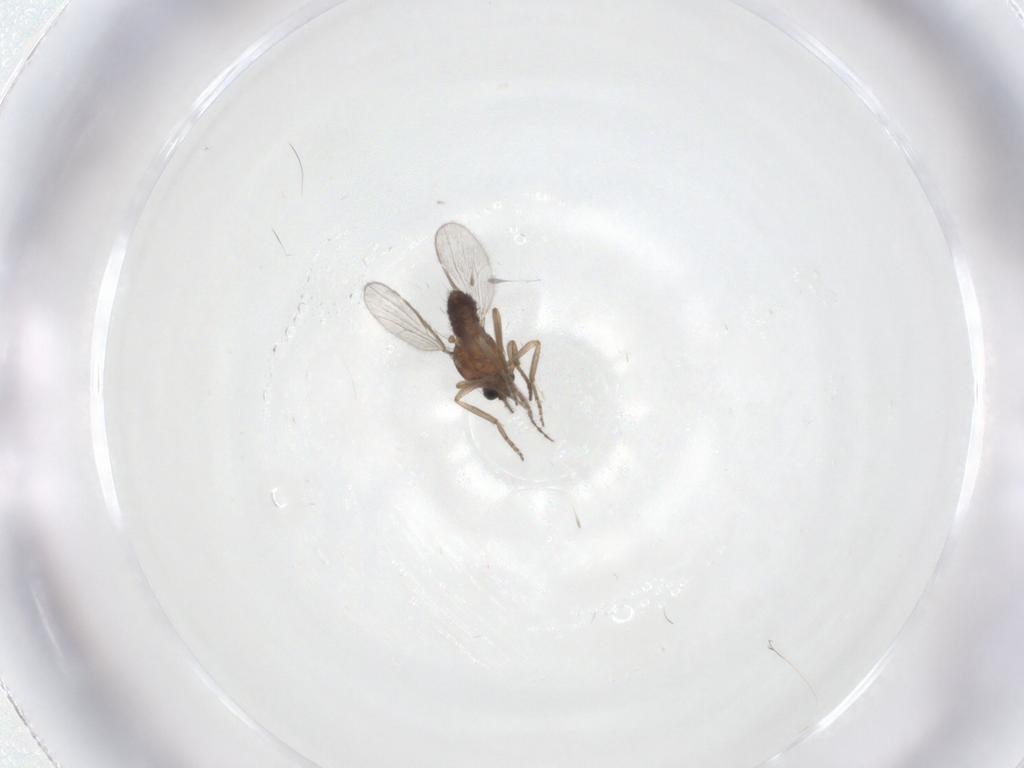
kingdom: Animalia
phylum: Arthropoda
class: Insecta
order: Diptera
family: Ceratopogonidae
